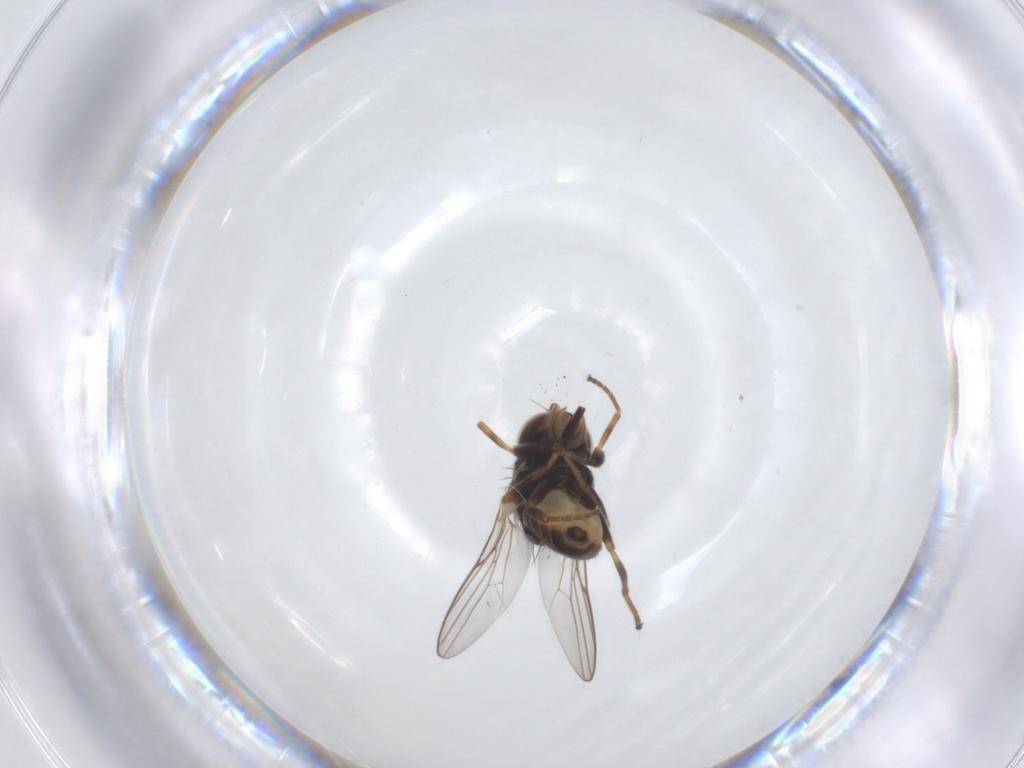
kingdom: Animalia
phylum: Arthropoda
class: Insecta
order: Diptera
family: Chloropidae
